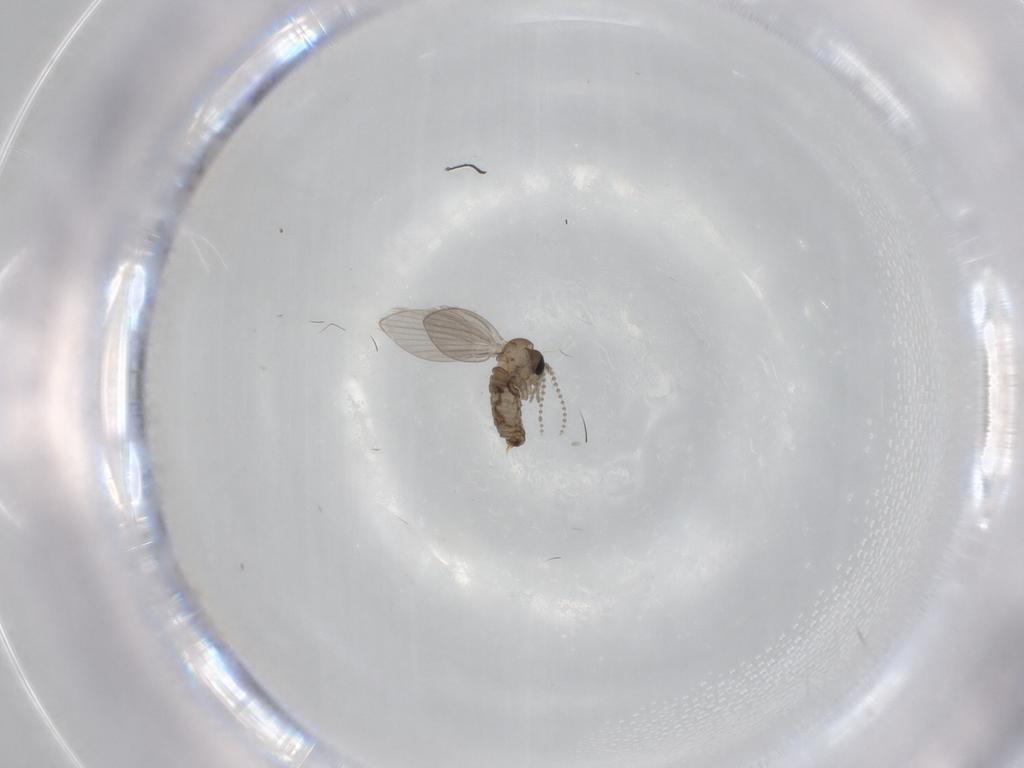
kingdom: Animalia
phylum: Arthropoda
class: Insecta
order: Diptera
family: Psychodidae
